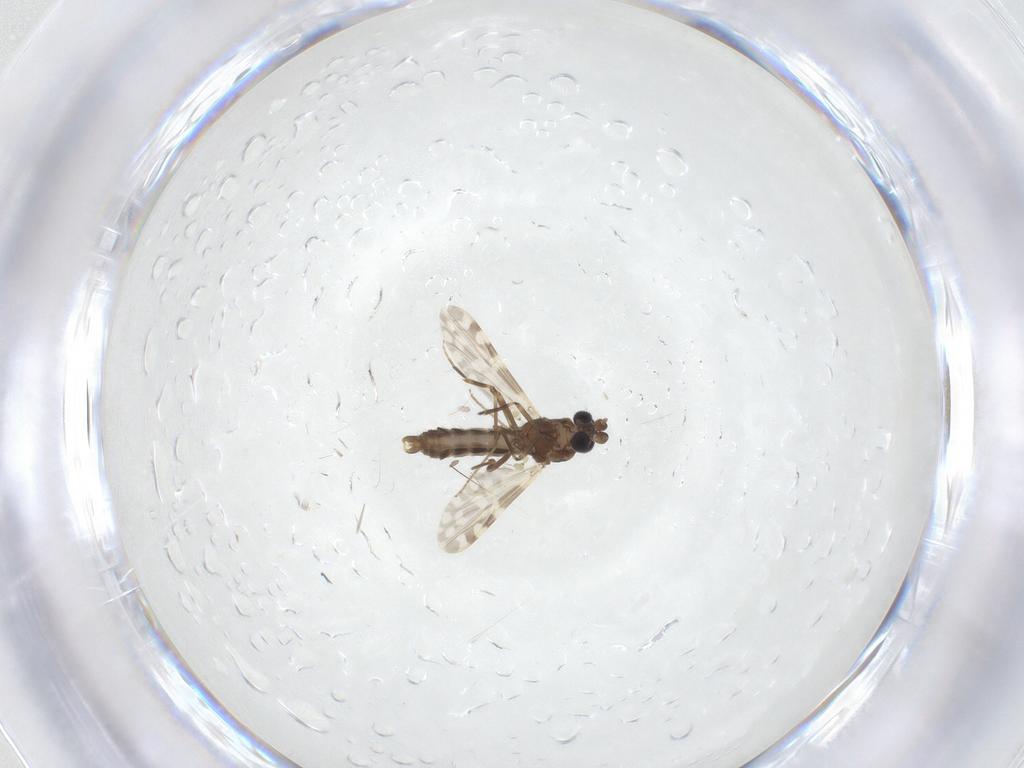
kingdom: Animalia
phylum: Arthropoda
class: Insecta
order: Diptera
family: Ceratopogonidae
